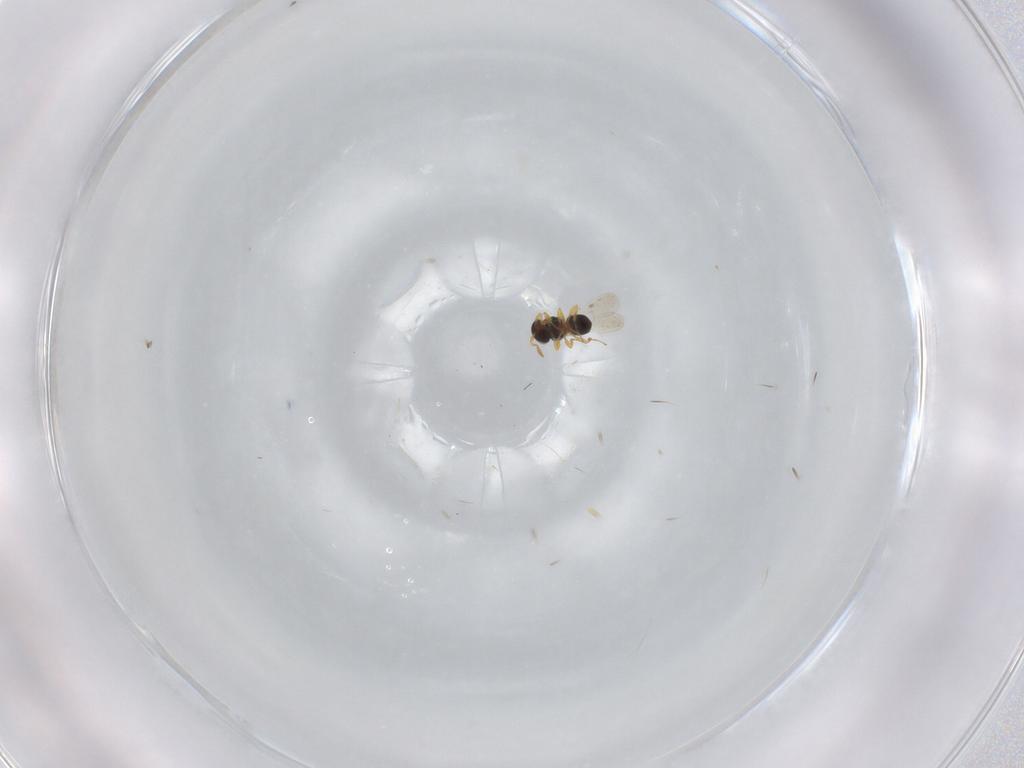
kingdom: Animalia
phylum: Arthropoda
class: Insecta
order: Hymenoptera
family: Platygastridae
